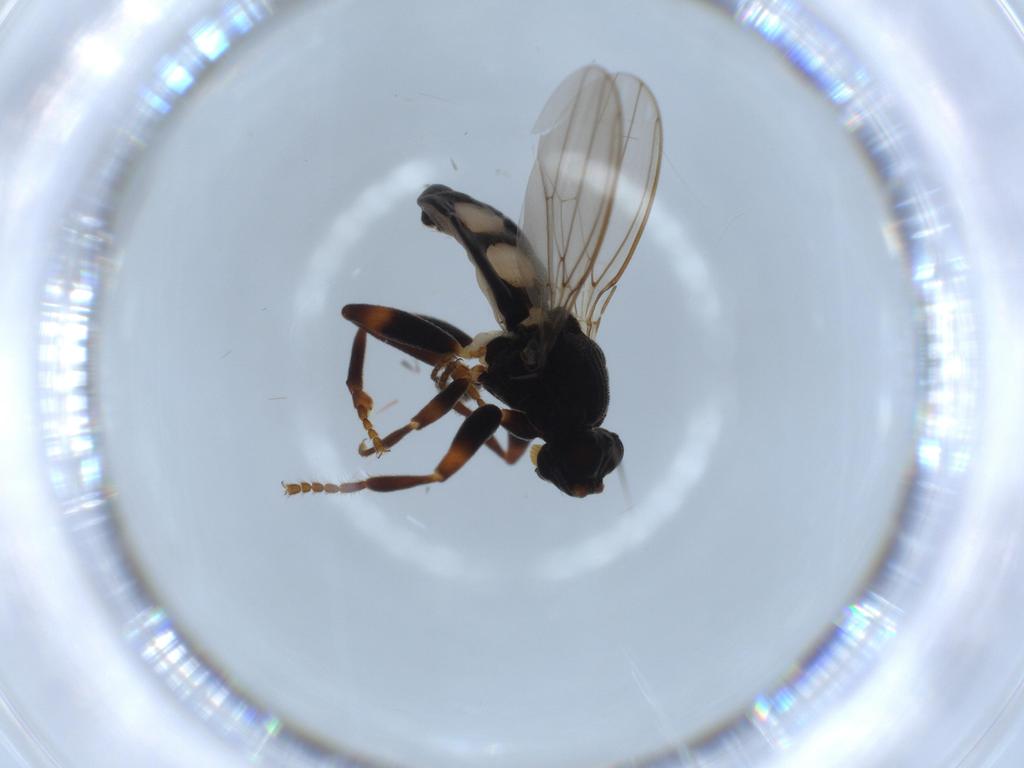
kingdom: Animalia
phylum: Arthropoda
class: Insecta
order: Diptera
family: Sphaeroceridae
